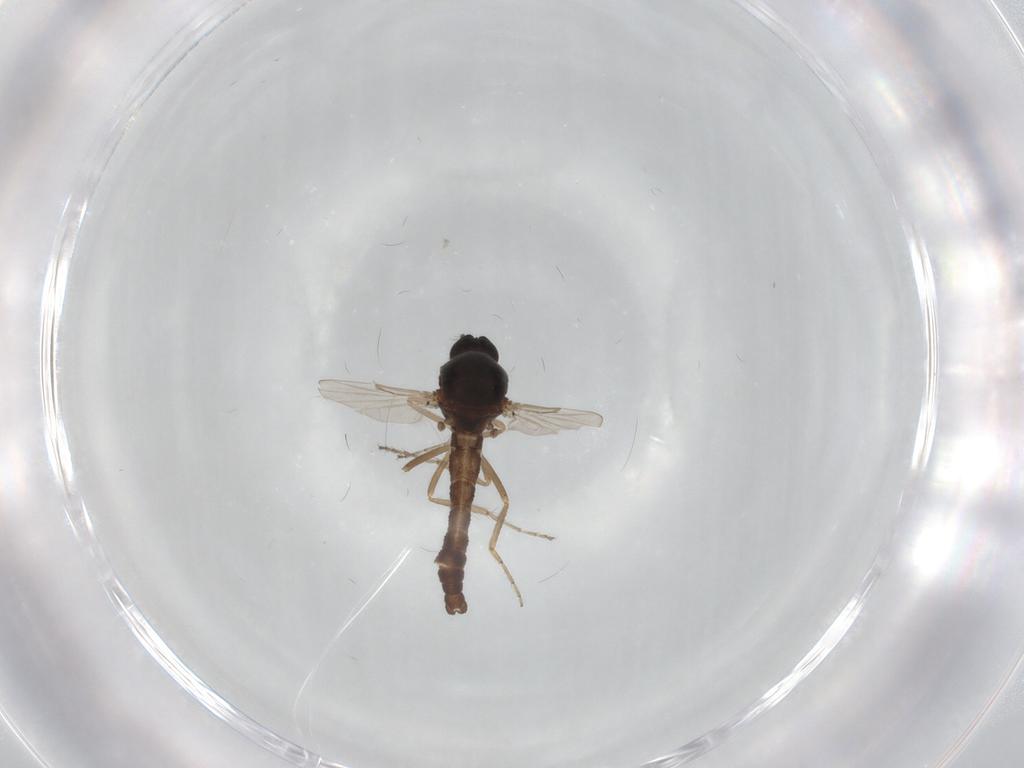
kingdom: Animalia
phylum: Arthropoda
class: Insecta
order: Diptera
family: Ceratopogonidae
